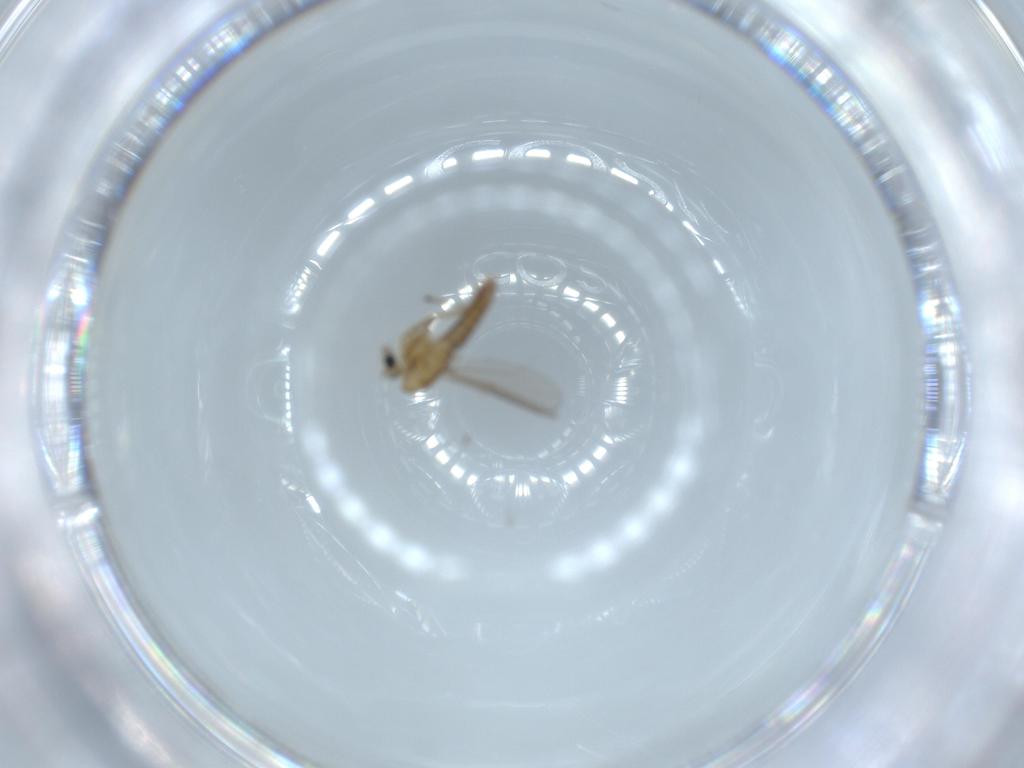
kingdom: Animalia
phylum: Arthropoda
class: Insecta
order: Diptera
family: Chironomidae
